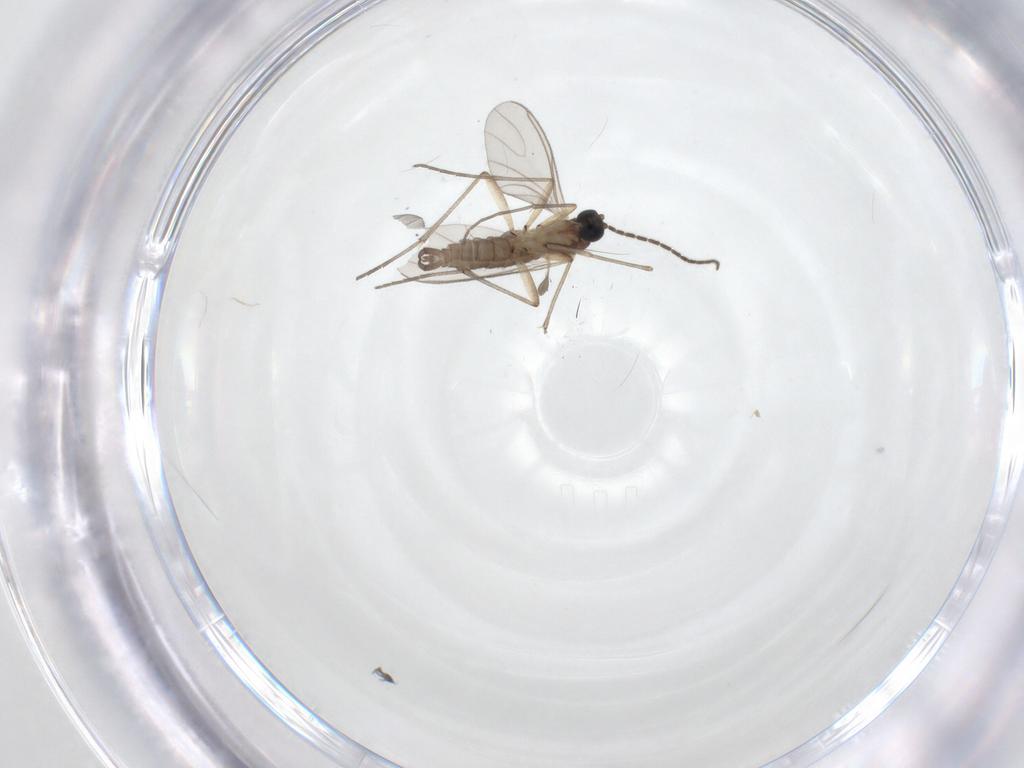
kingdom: Animalia
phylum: Arthropoda
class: Insecta
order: Diptera
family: Sciaridae
